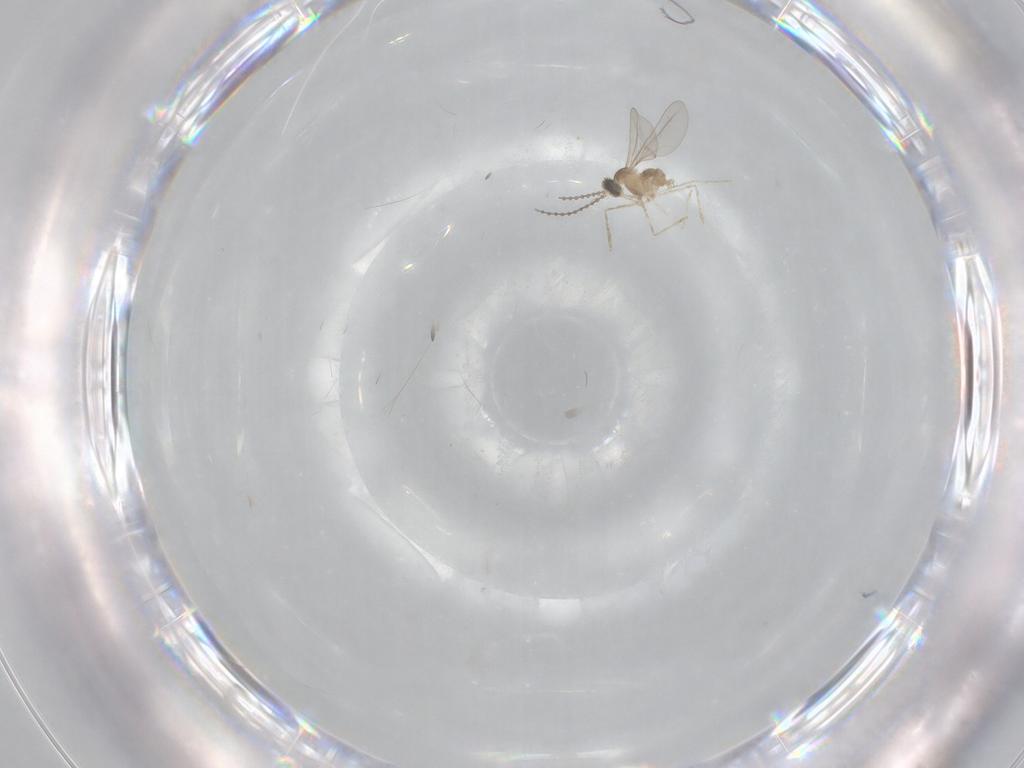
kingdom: Animalia
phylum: Arthropoda
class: Insecta
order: Diptera
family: Cecidomyiidae
